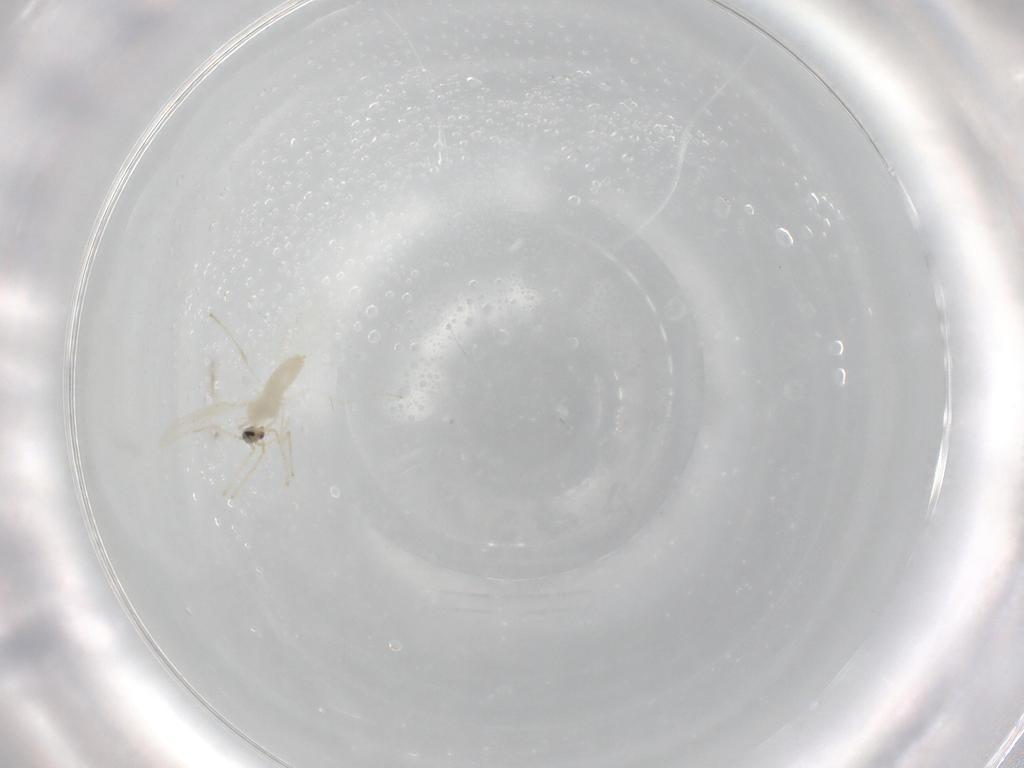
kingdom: Animalia
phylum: Arthropoda
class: Insecta
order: Diptera
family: Cecidomyiidae
